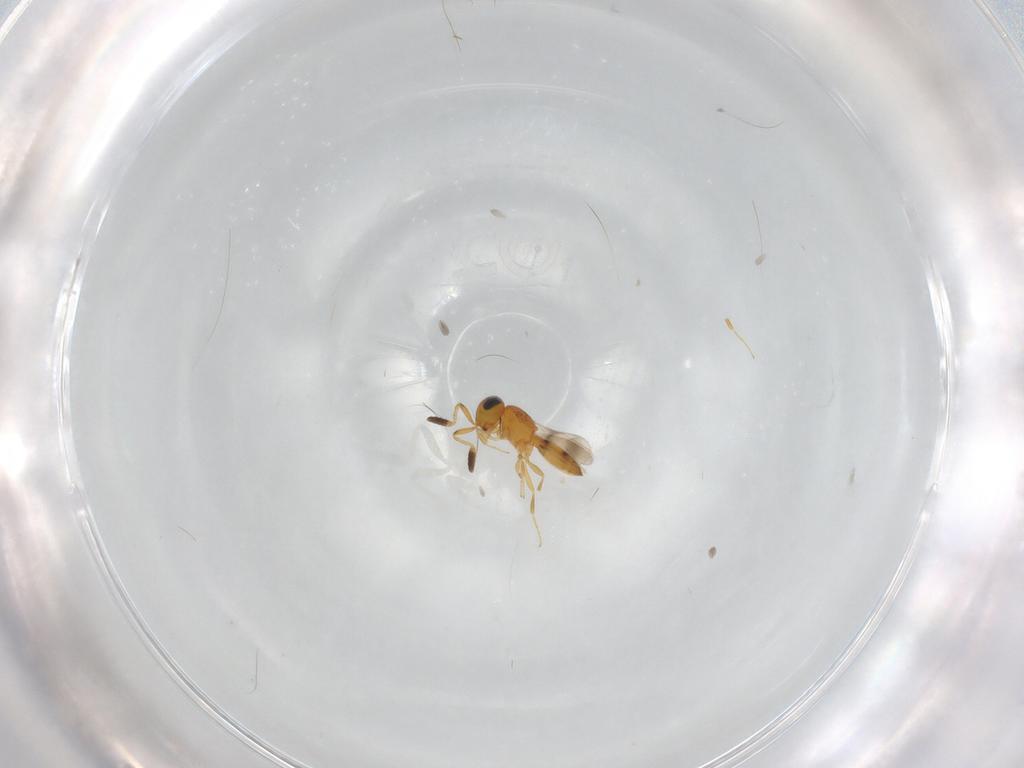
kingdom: Animalia
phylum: Arthropoda
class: Insecta
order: Hymenoptera
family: Scelionidae
